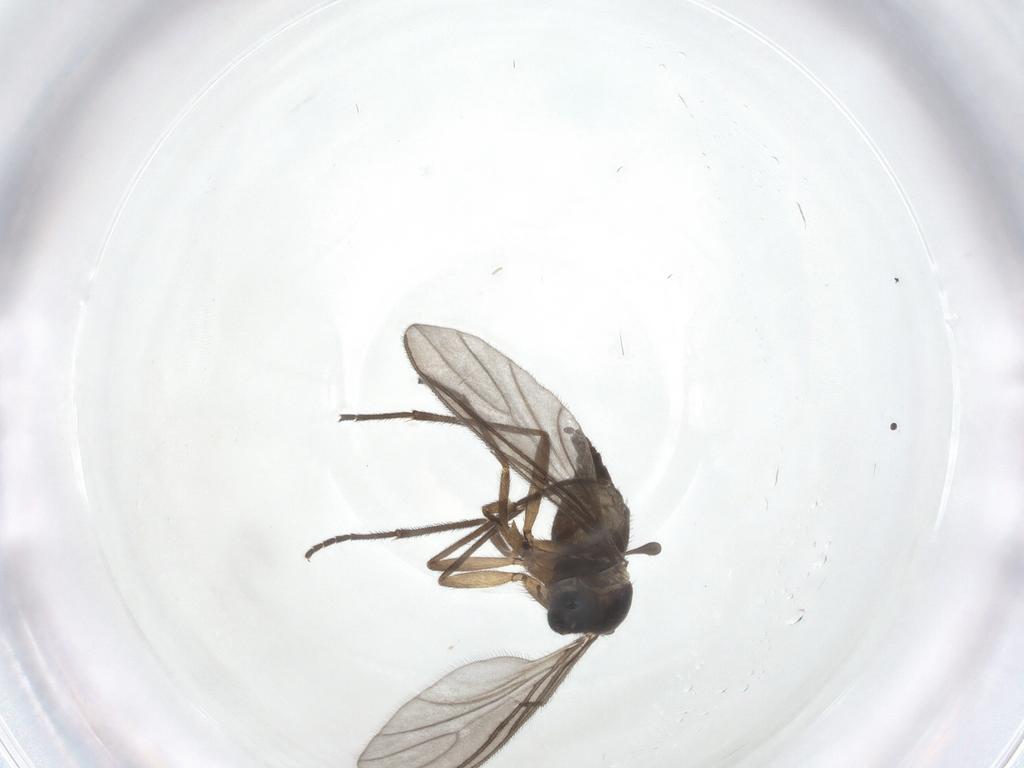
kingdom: Animalia
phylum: Arthropoda
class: Insecta
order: Diptera
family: Sciaridae
